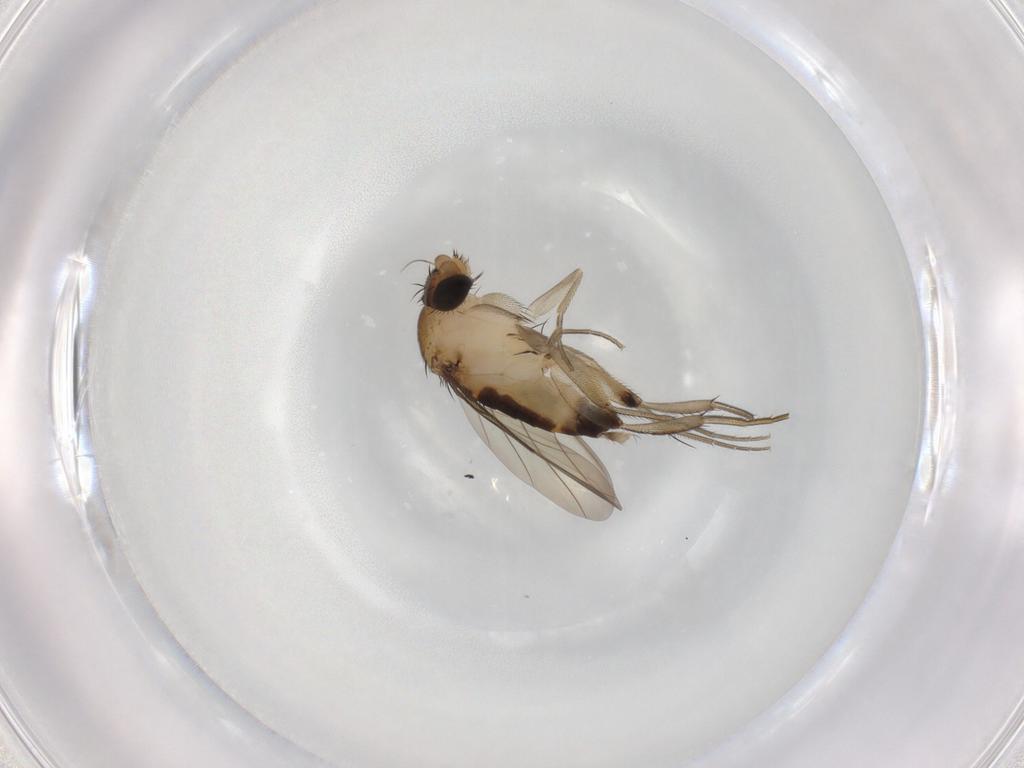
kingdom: Animalia
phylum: Arthropoda
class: Insecta
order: Diptera
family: Phoridae
